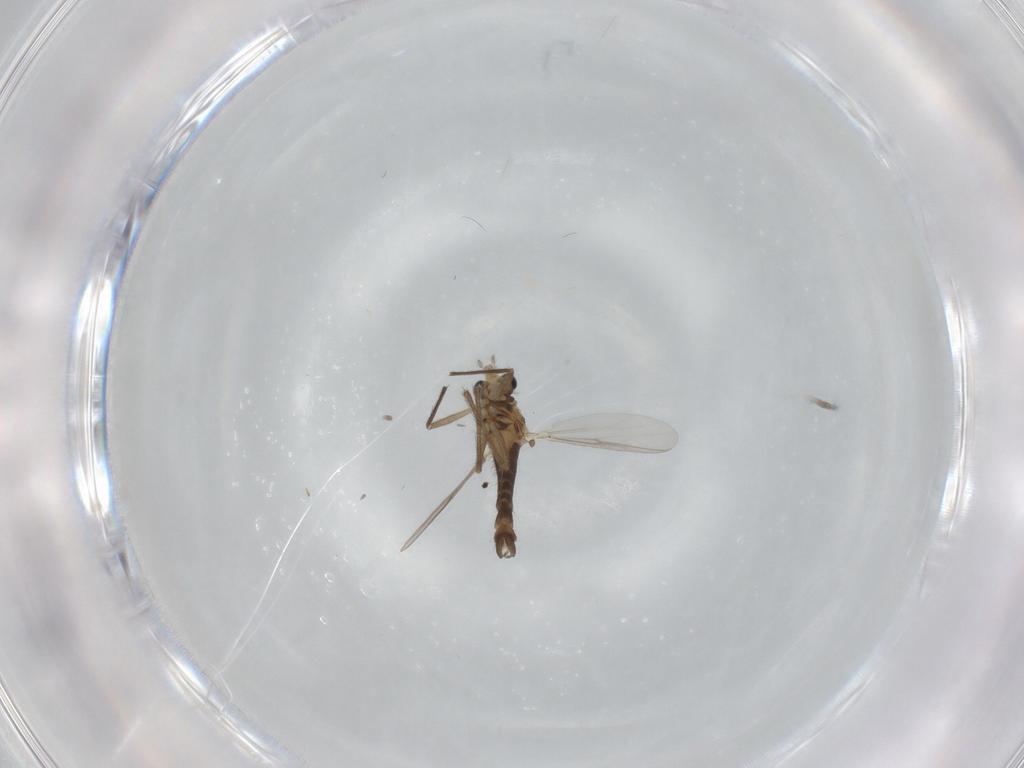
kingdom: Animalia
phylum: Arthropoda
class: Insecta
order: Diptera
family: Chironomidae
